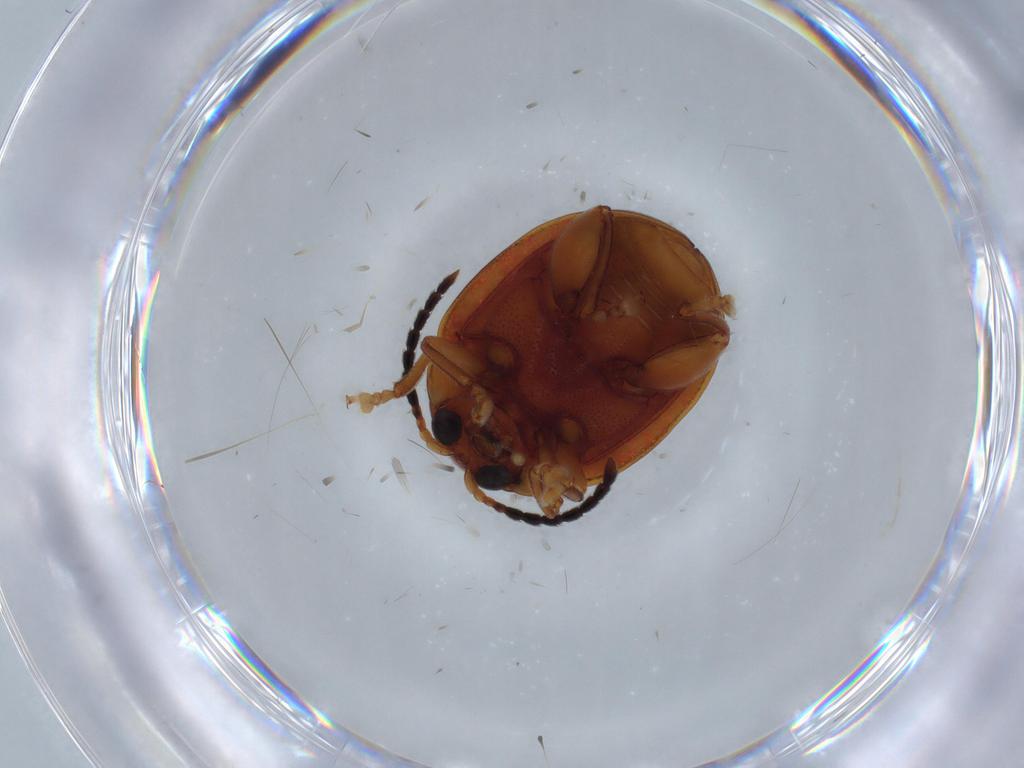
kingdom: Animalia
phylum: Arthropoda
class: Insecta
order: Coleoptera
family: Chrysomelidae
